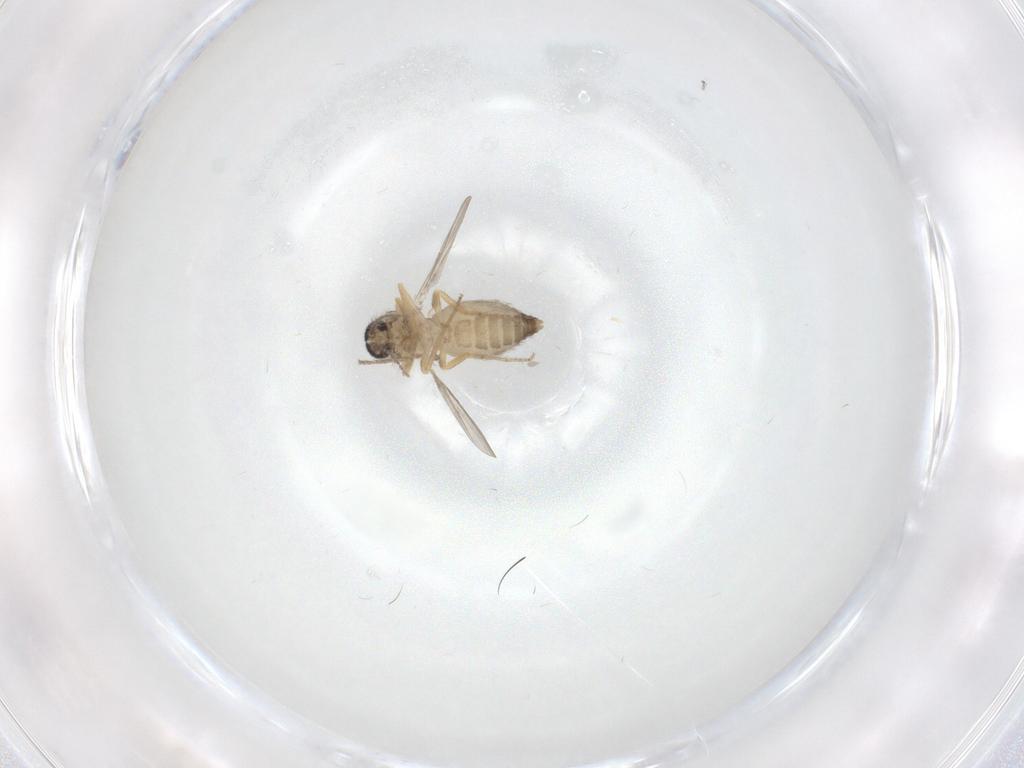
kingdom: Animalia
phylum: Arthropoda
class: Insecta
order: Diptera
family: Ceratopogonidae
